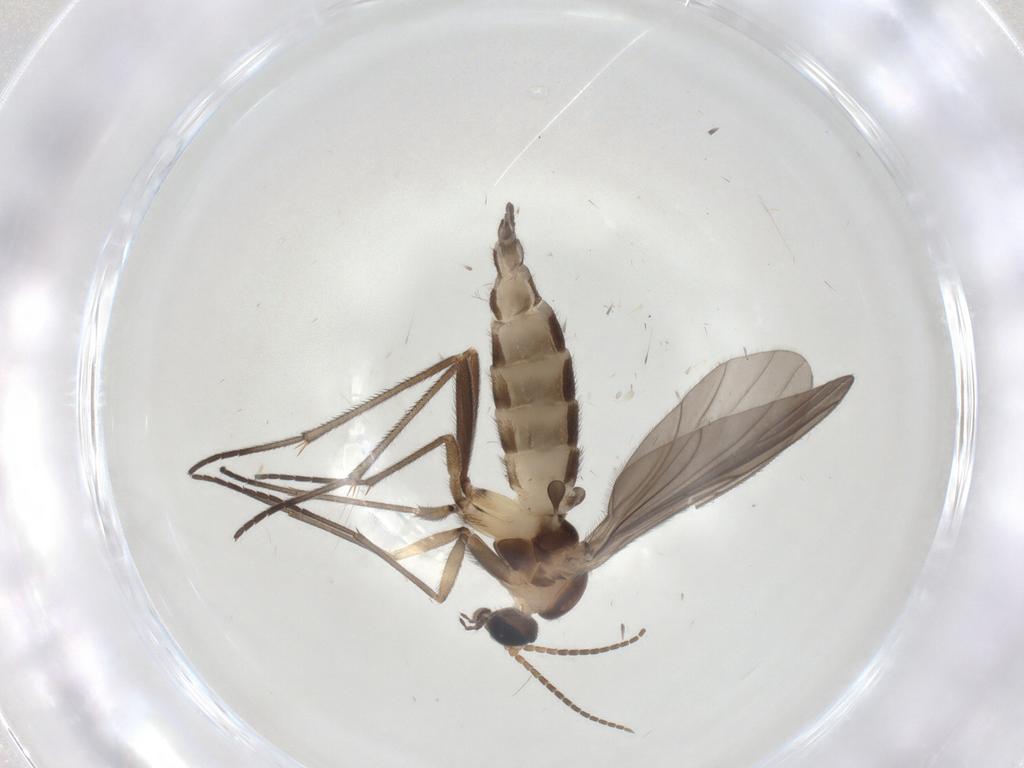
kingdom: Animalia
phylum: Arthropoda
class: Insecta
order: Diptera
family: Sciaridae
